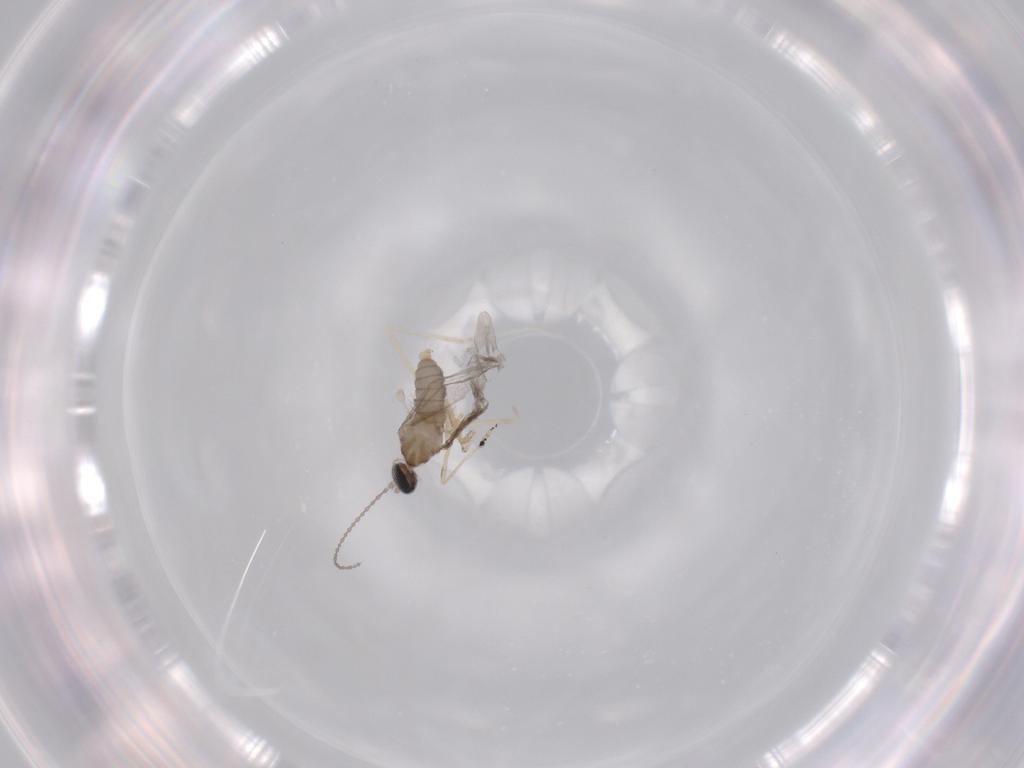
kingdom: Animalia
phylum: Arthropoda
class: Insecta
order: Diptera
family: Cecidomyiidae
